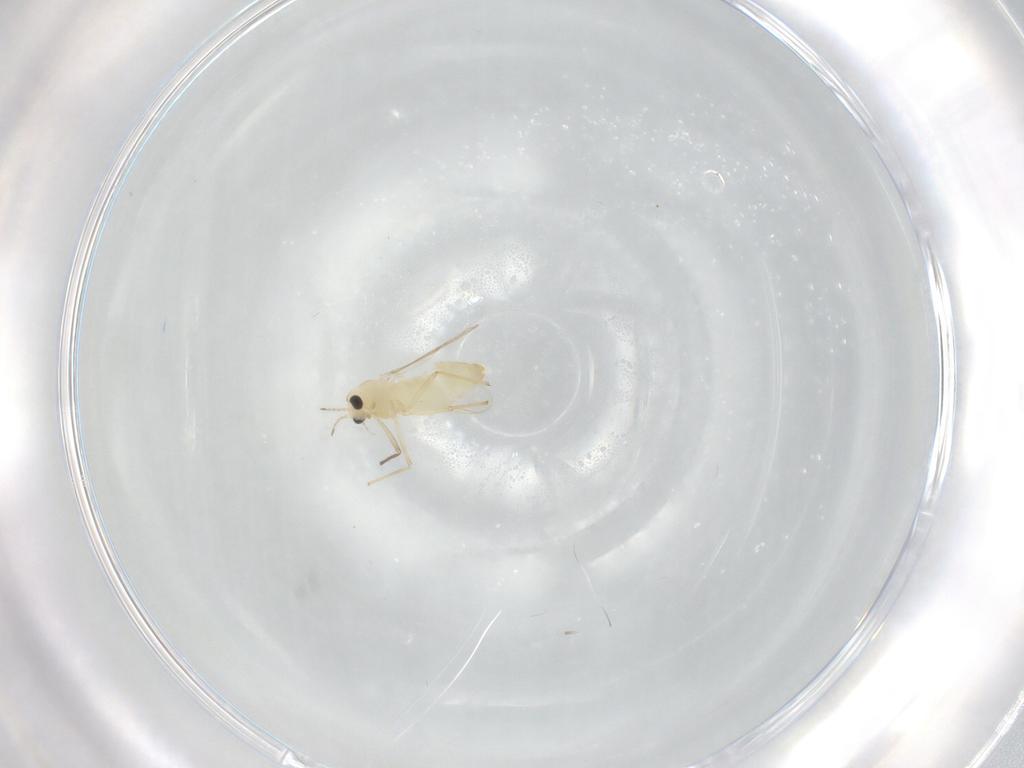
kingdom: Animalia
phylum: Arthropoda
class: Insecta
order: Diptera
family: Chironomidae
